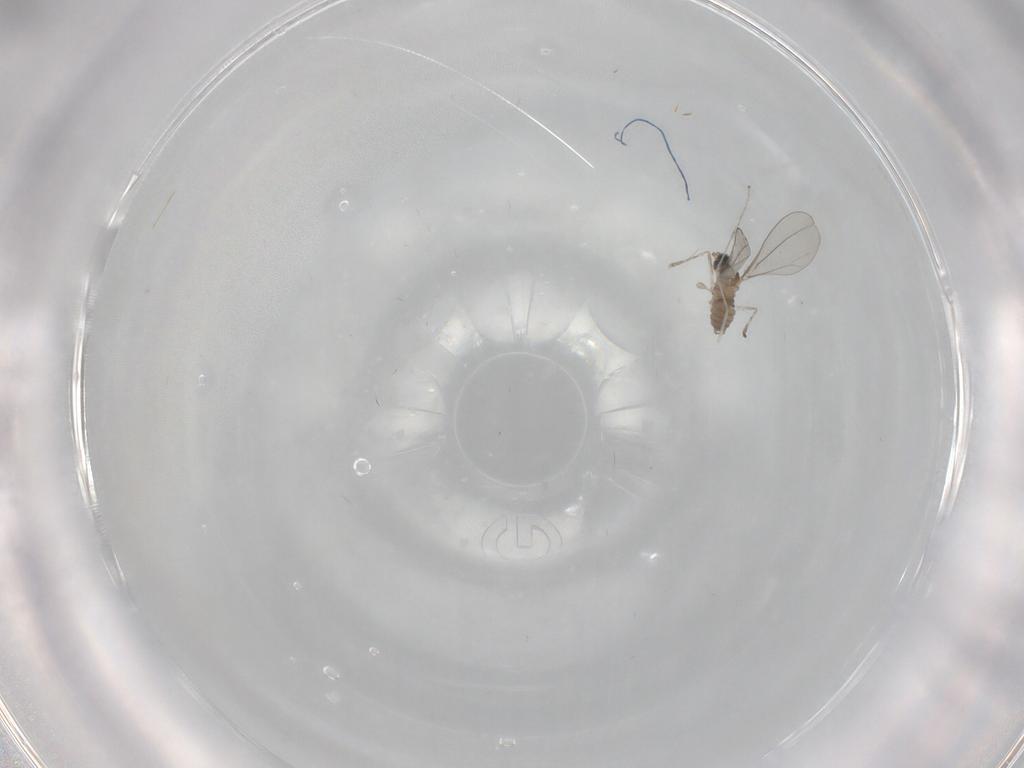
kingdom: Animalia
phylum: Arthropoda
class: Insecta
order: Diptera
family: Cecidomyiidae
